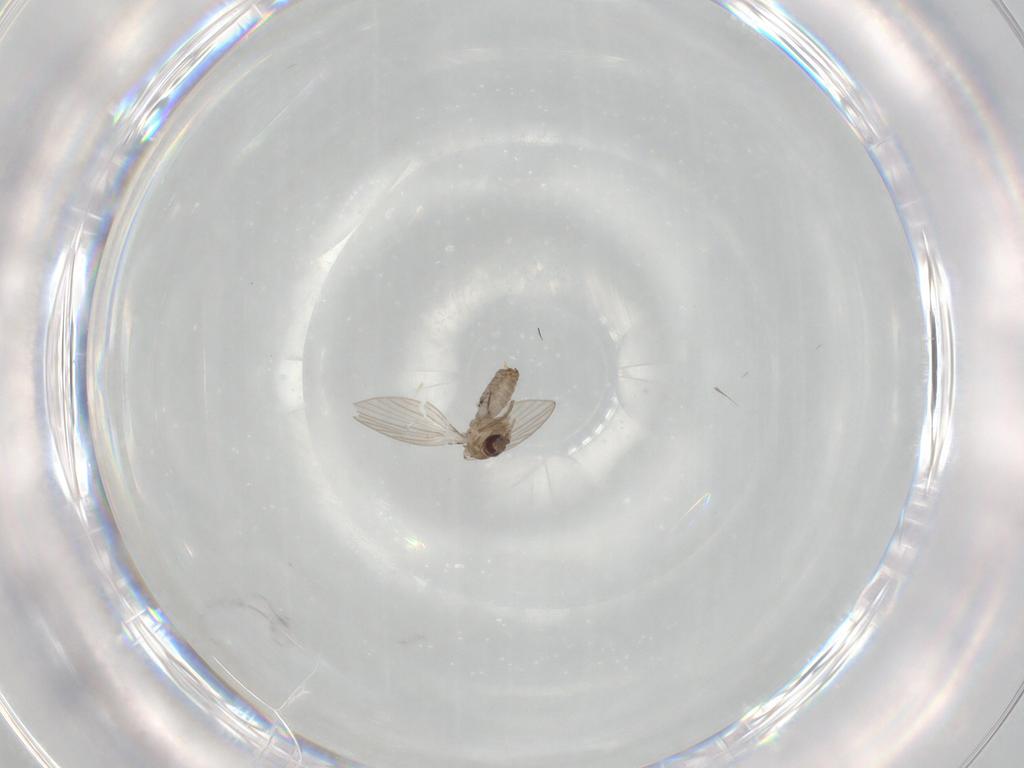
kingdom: Animalia
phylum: Arthropoda
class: Insecta
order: Diptera
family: Psychodidae
